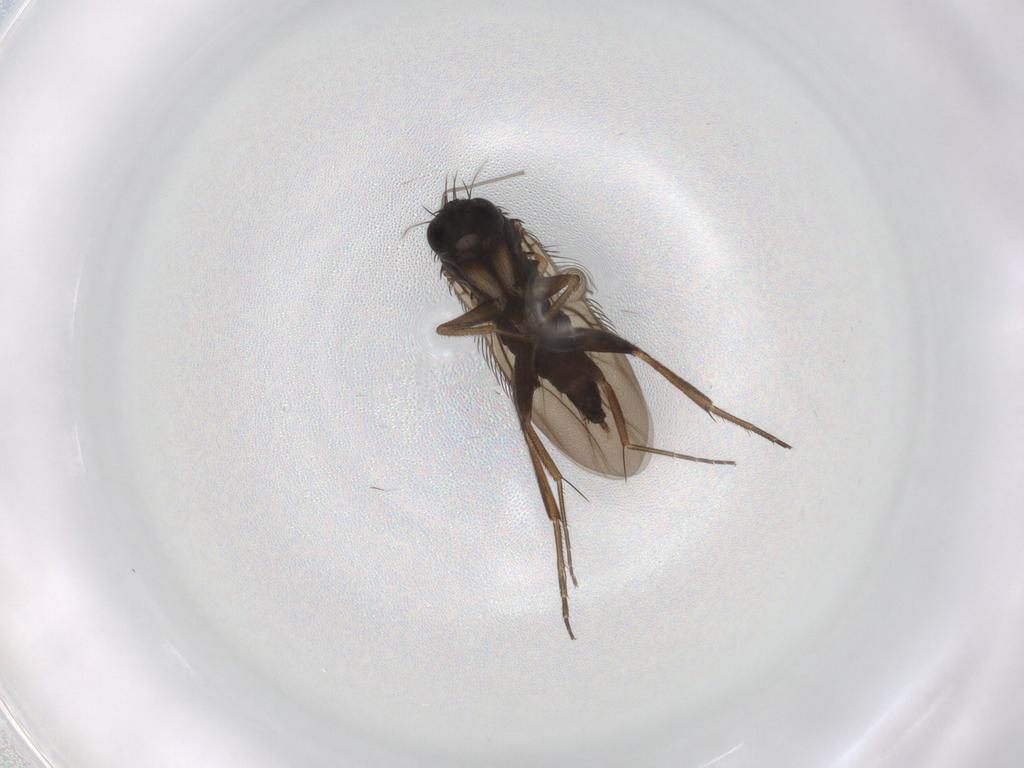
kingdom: Animalia
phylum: Arthropoda
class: Insecta
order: Diptera
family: Phoridae
